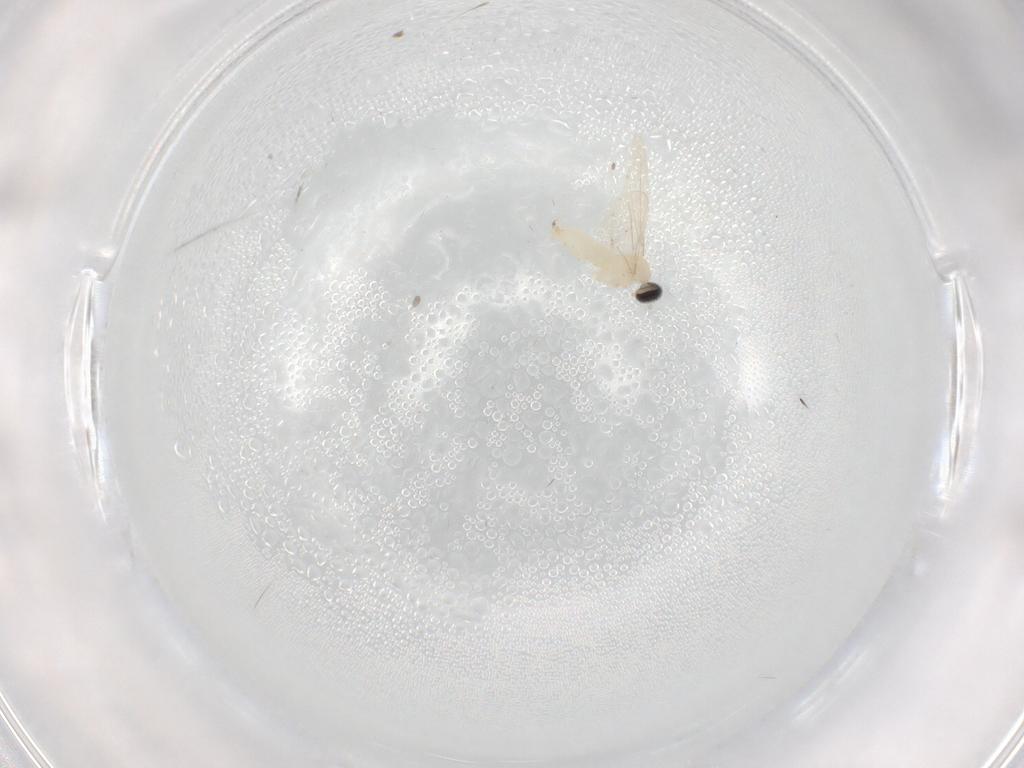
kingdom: Animalia
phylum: Arthropoda
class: Insecta
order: Diptera
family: Cecidomyiidae
